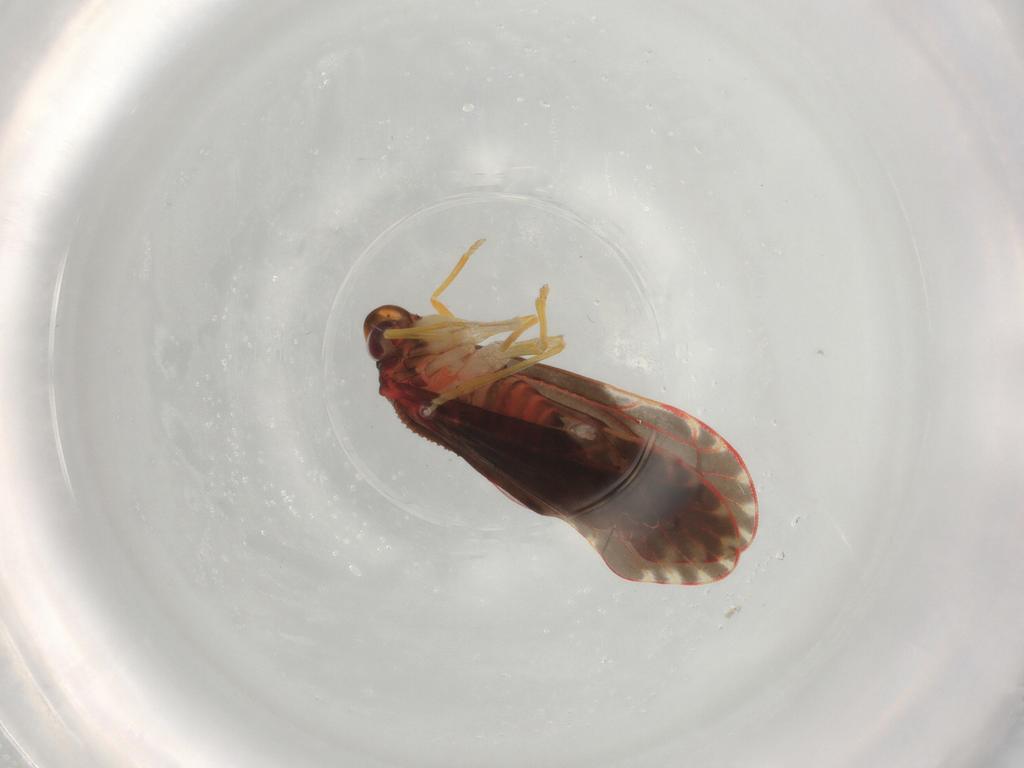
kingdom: Animalia
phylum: Arthropoda
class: Insecta
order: Hemiptera
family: Derbidae
